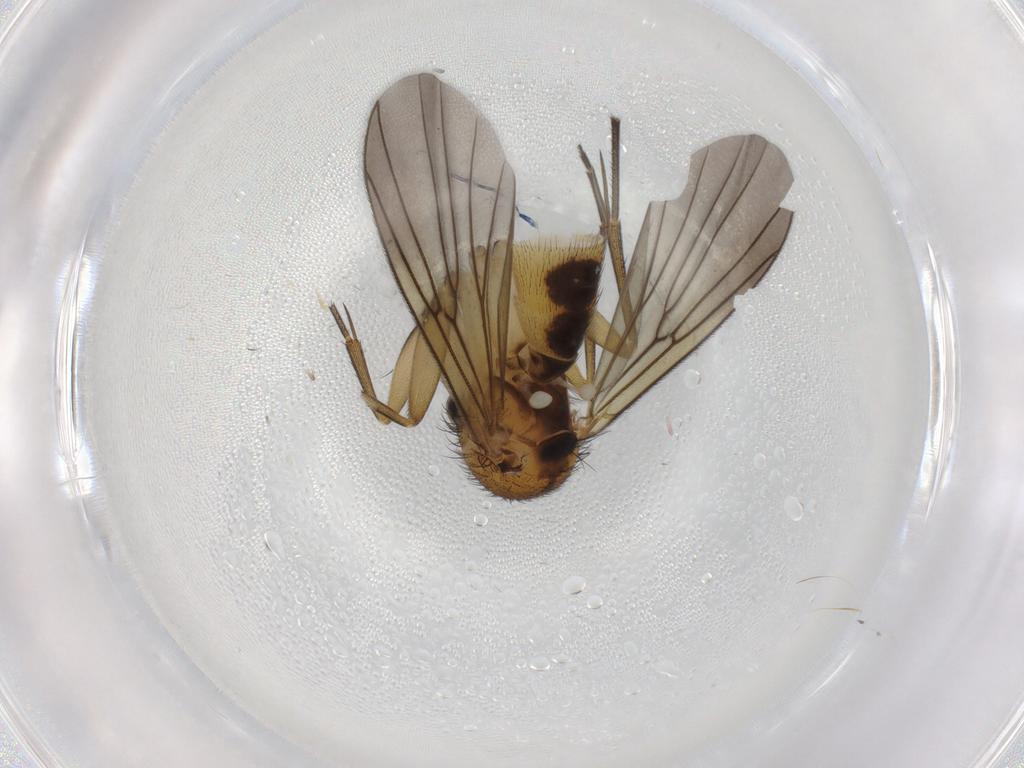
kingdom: Animalia
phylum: Arthropoda
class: Insecta
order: Diptera
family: Mycetophilidae
